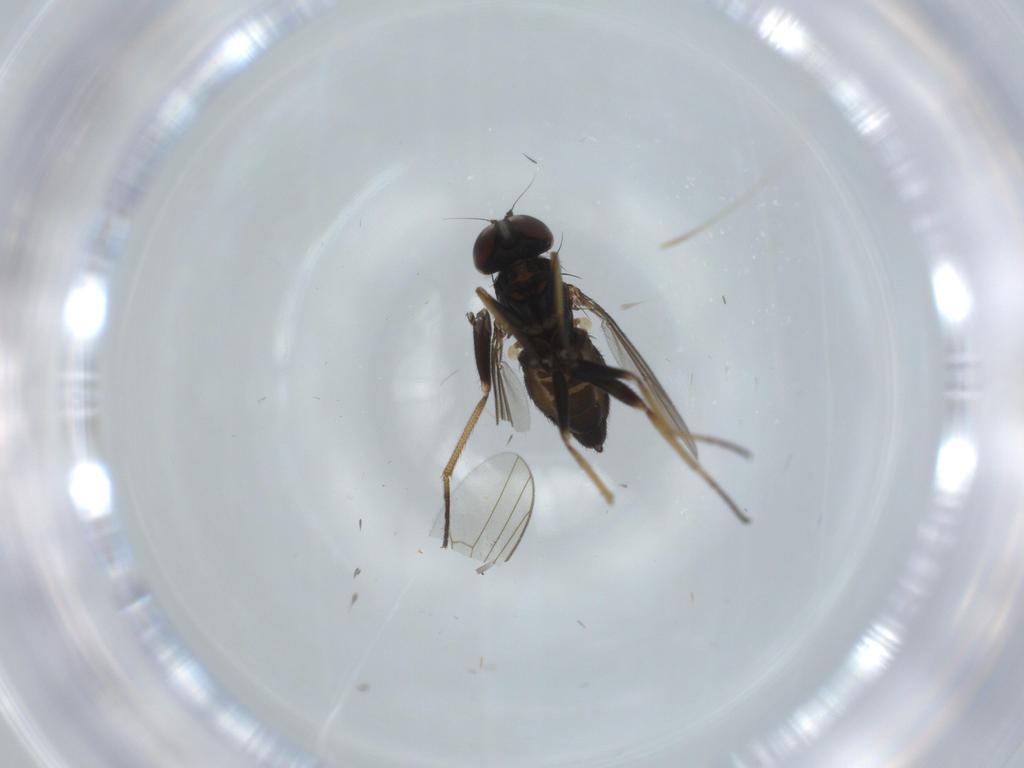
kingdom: Animalia
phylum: Arthropoda
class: Insecta
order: Diptera
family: Dolichopodidae
